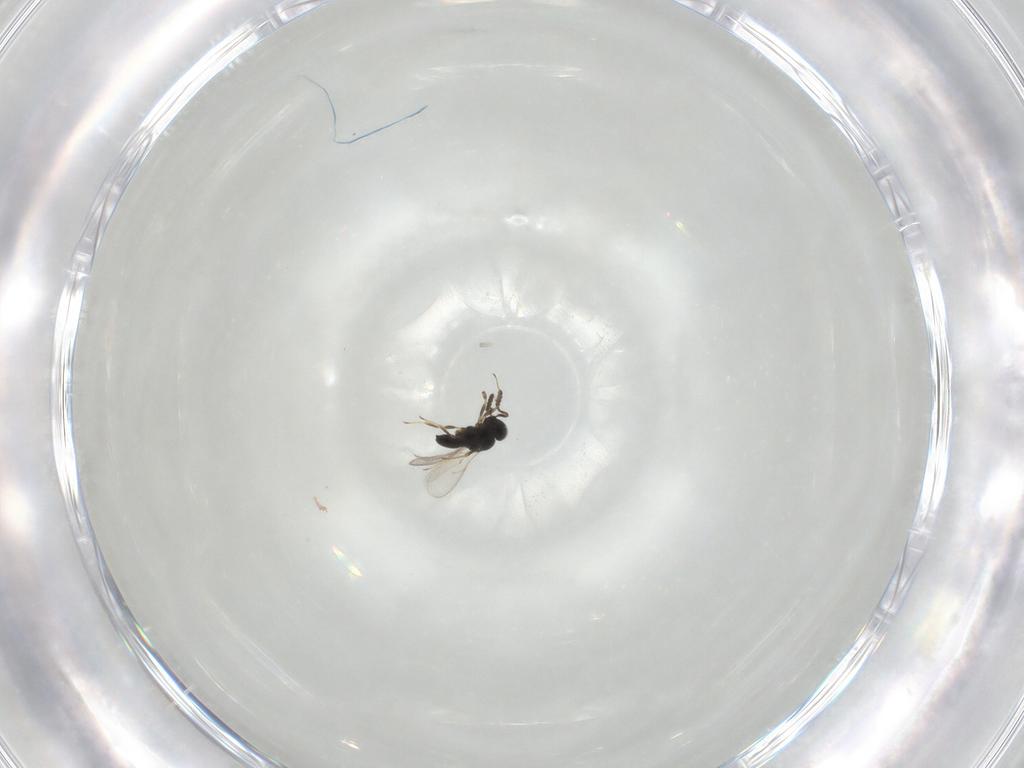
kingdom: Animalia
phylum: Arthropoda
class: Insecta
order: Hymenoptera
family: Scelionidae
